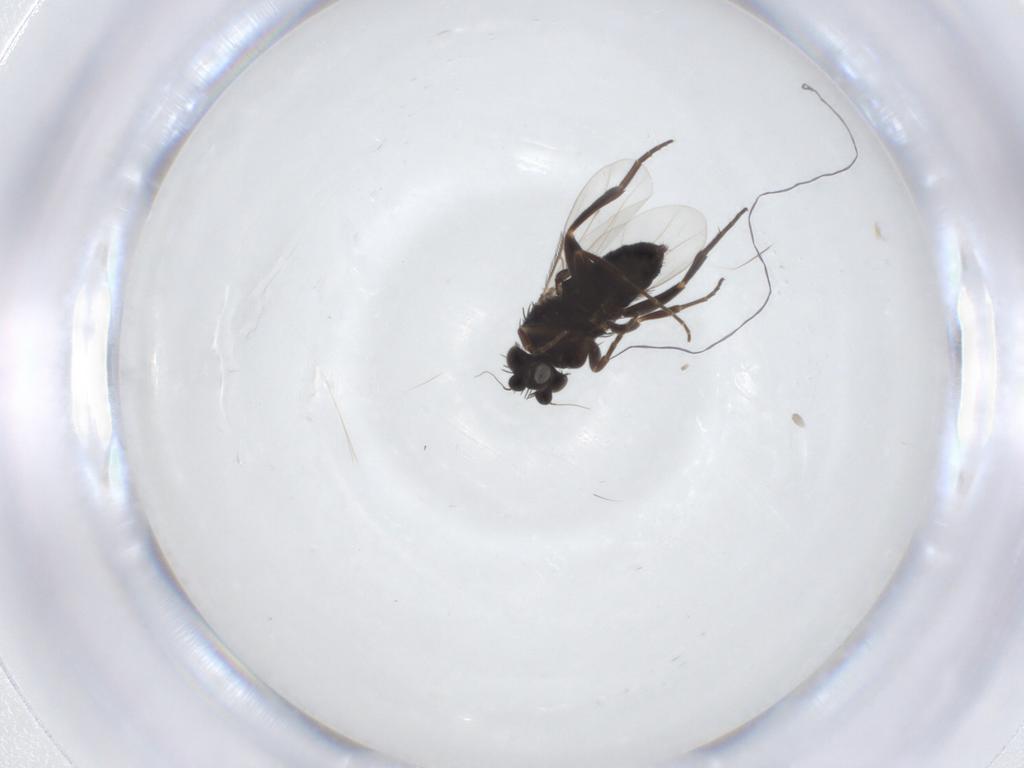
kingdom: Animalia
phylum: Arthropoda
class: Insecta
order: Diptera
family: Phoridae
